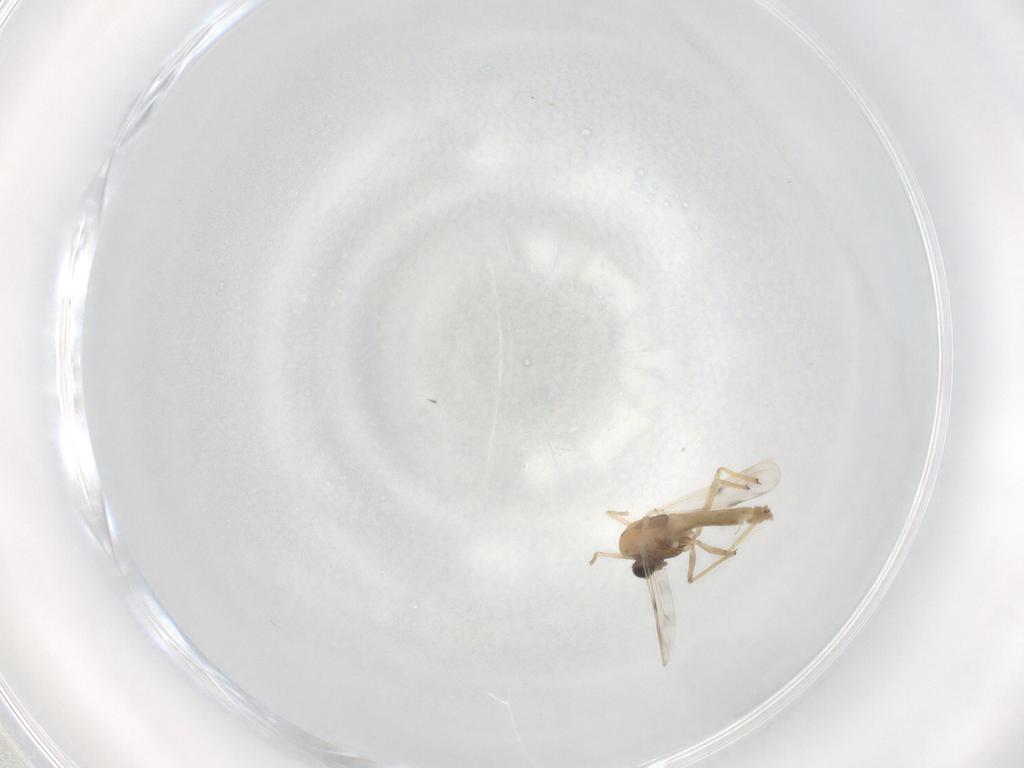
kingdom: Animalia
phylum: Arthropoda
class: Insecta
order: Diptera
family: Chironomidae
